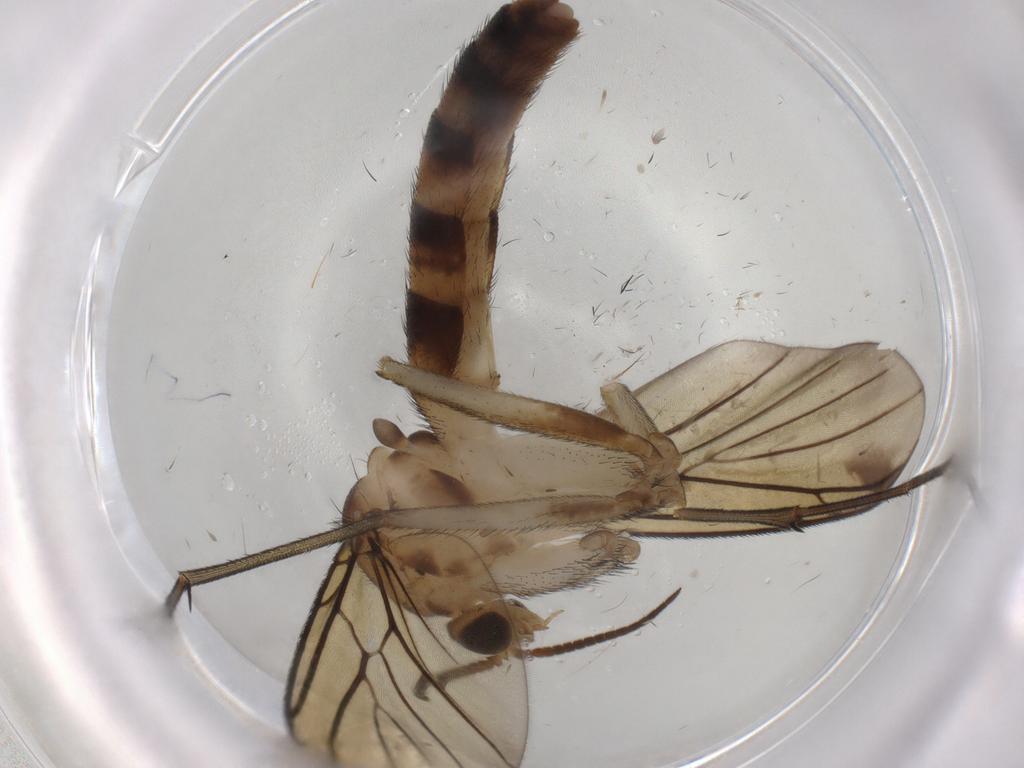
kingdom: Animalia
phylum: Arthropoda
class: Insecta
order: Diptera
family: Keroplatidae
